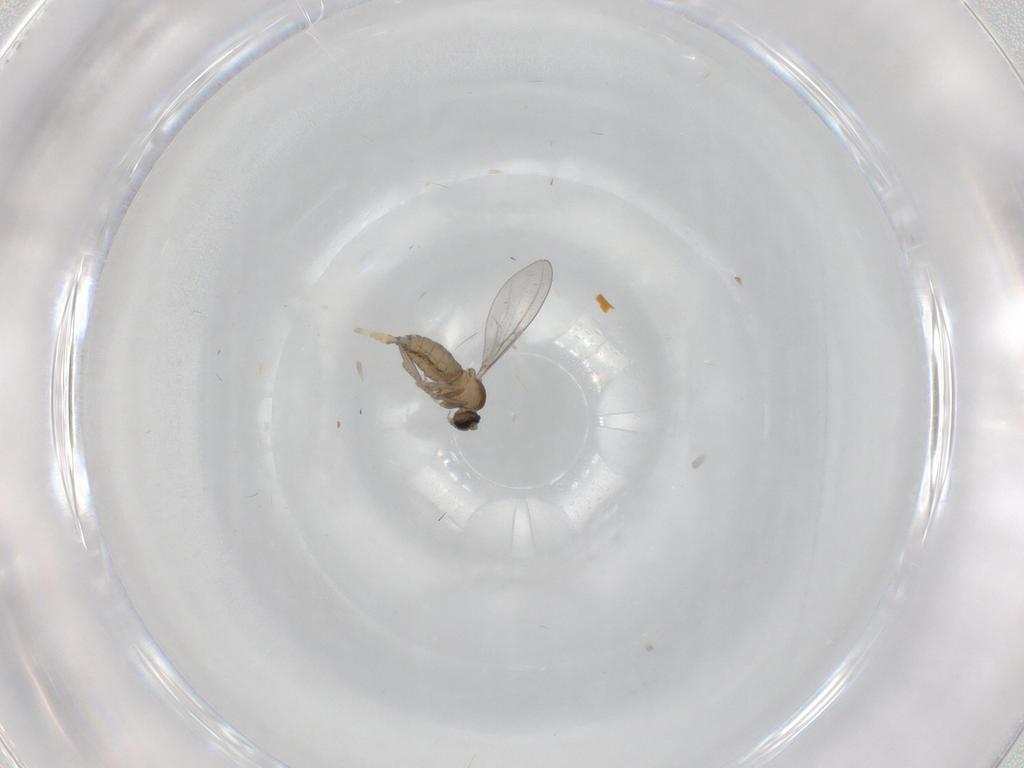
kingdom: Animalia
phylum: Arthropoda
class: Insecta
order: Diptera
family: Cecidomyiidae
